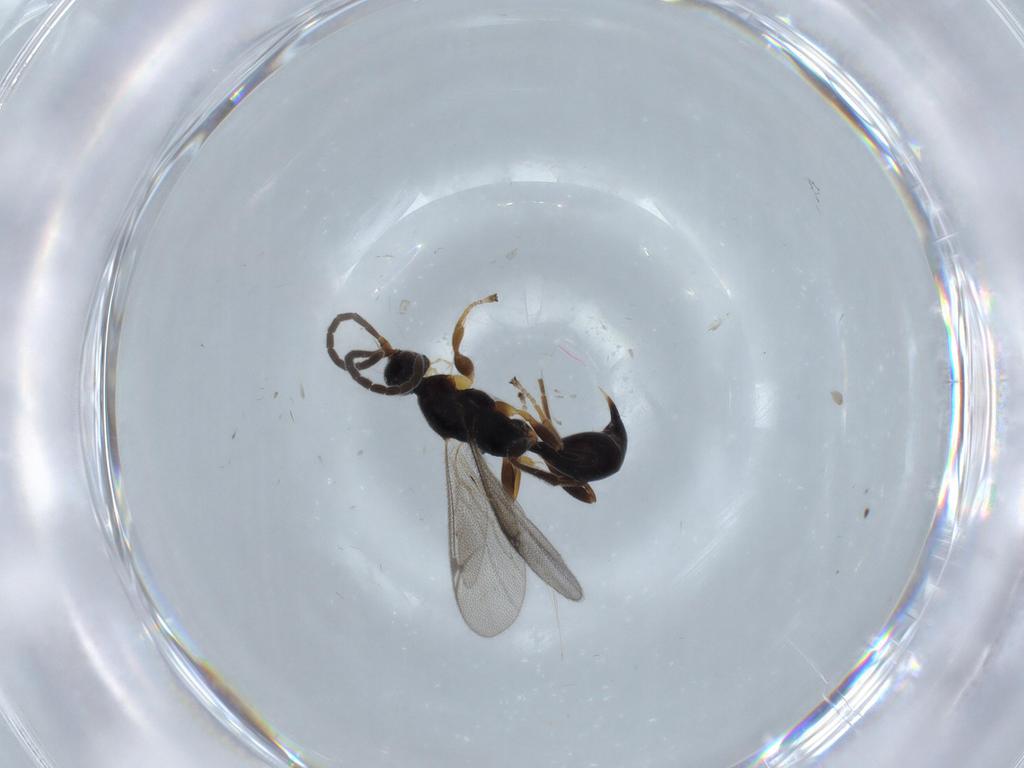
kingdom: Animalia
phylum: Arthropoda
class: Insecta
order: Hymenoptera
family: Proctotrupidae
